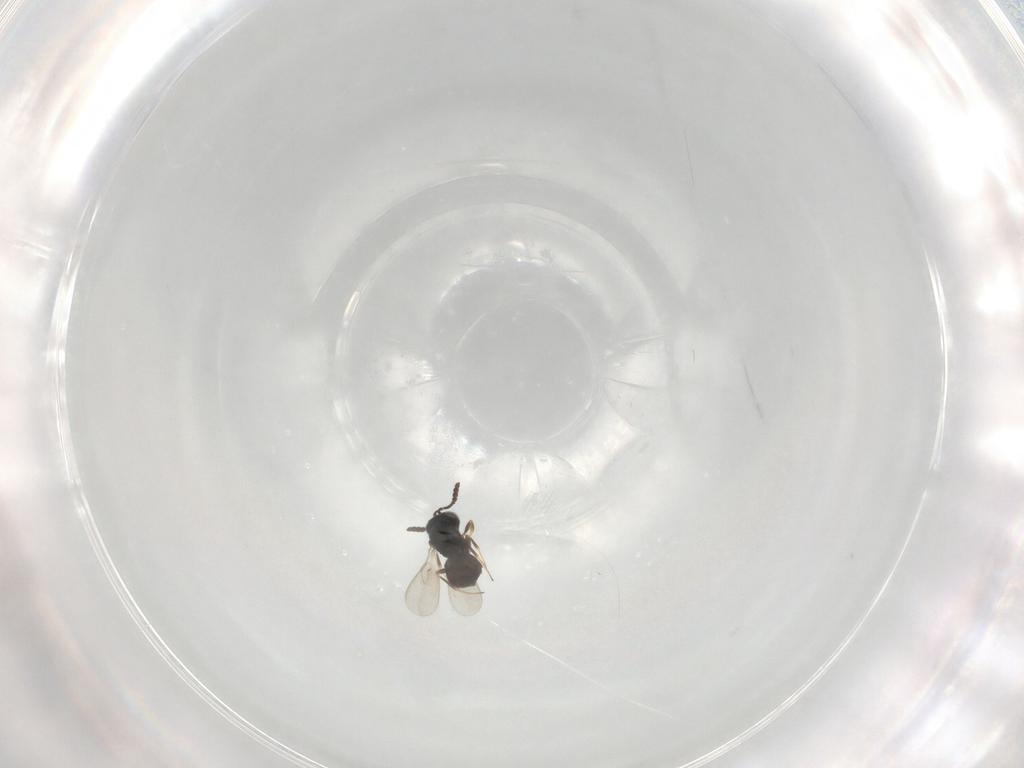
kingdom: Animalia
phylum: Arthropoda
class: Insecta
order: Hymenoptera
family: Scelionidae
